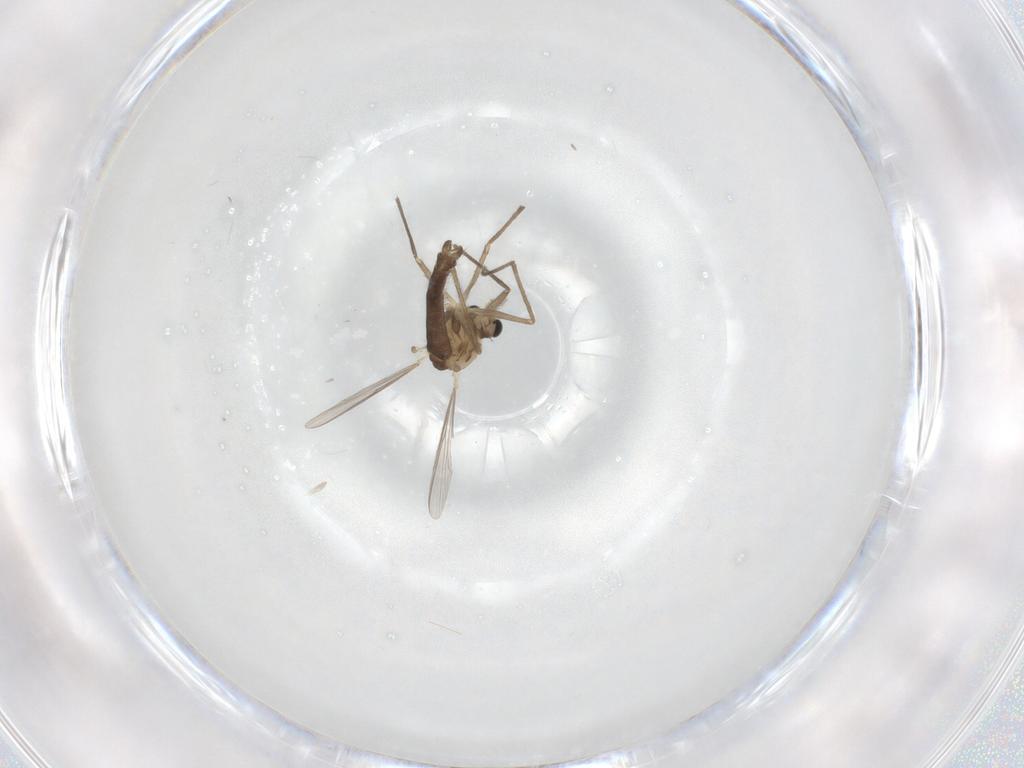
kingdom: Animalia
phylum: Arthropoda
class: Insecta
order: Diptera
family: Chironomidae
